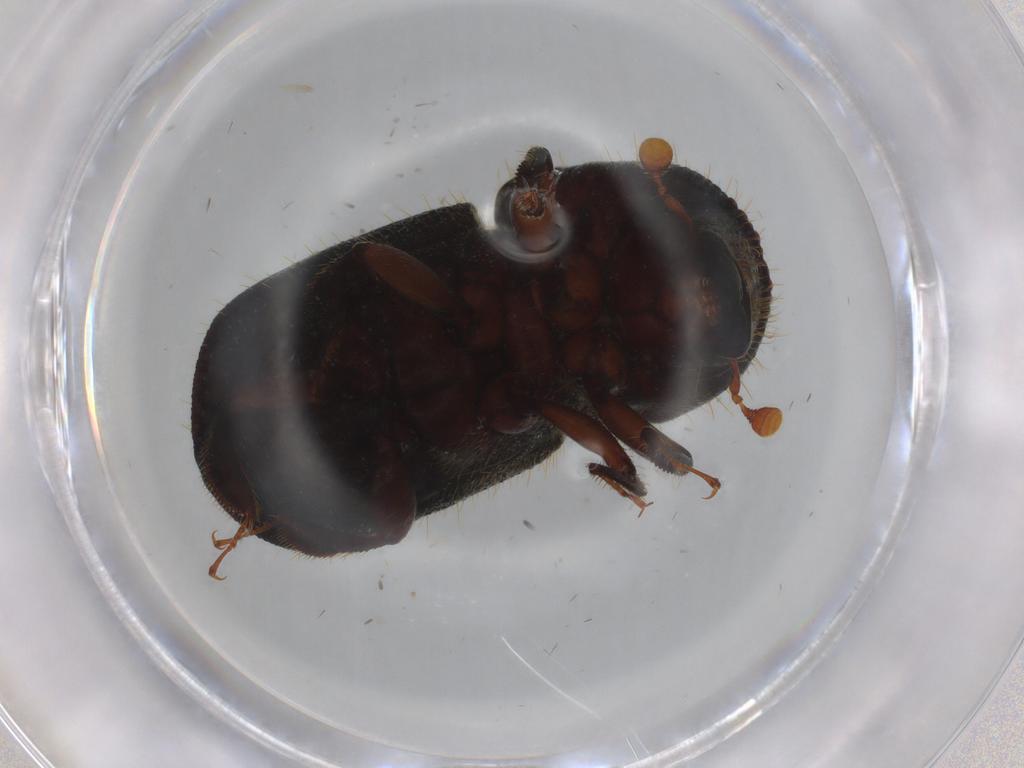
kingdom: Animalia
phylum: Arthropoda
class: Insecta
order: Coleoptera
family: Curculionidae
